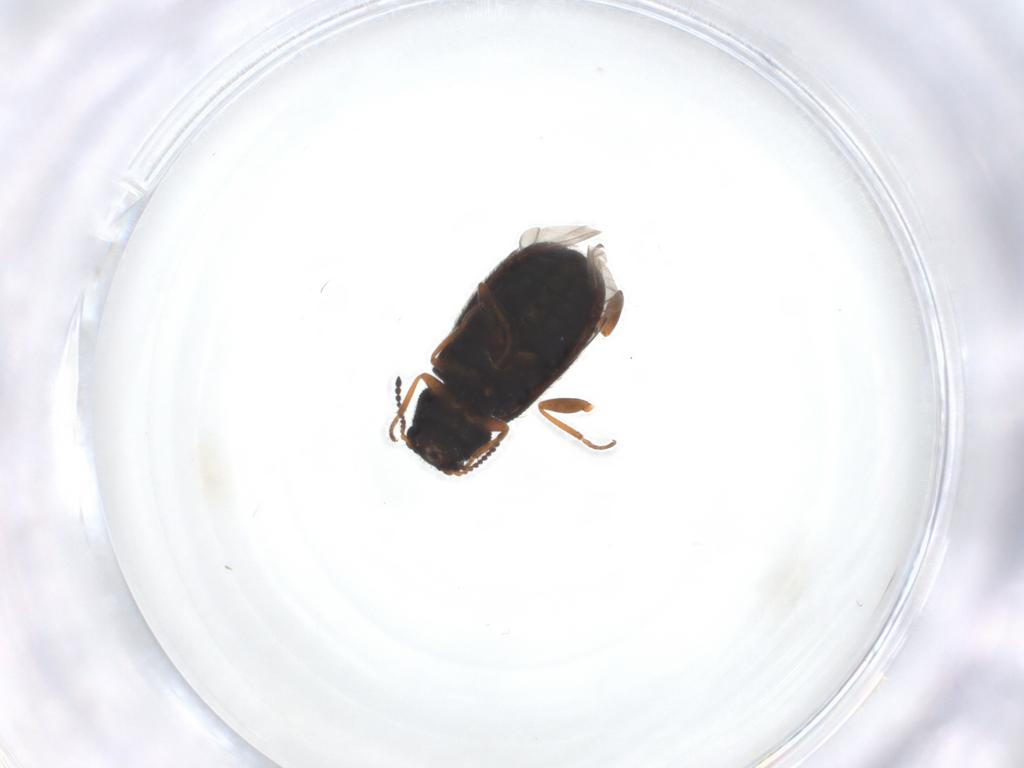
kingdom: Animalia
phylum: Arthropoda
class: Insecta
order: Coleoptera
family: Melyridae
